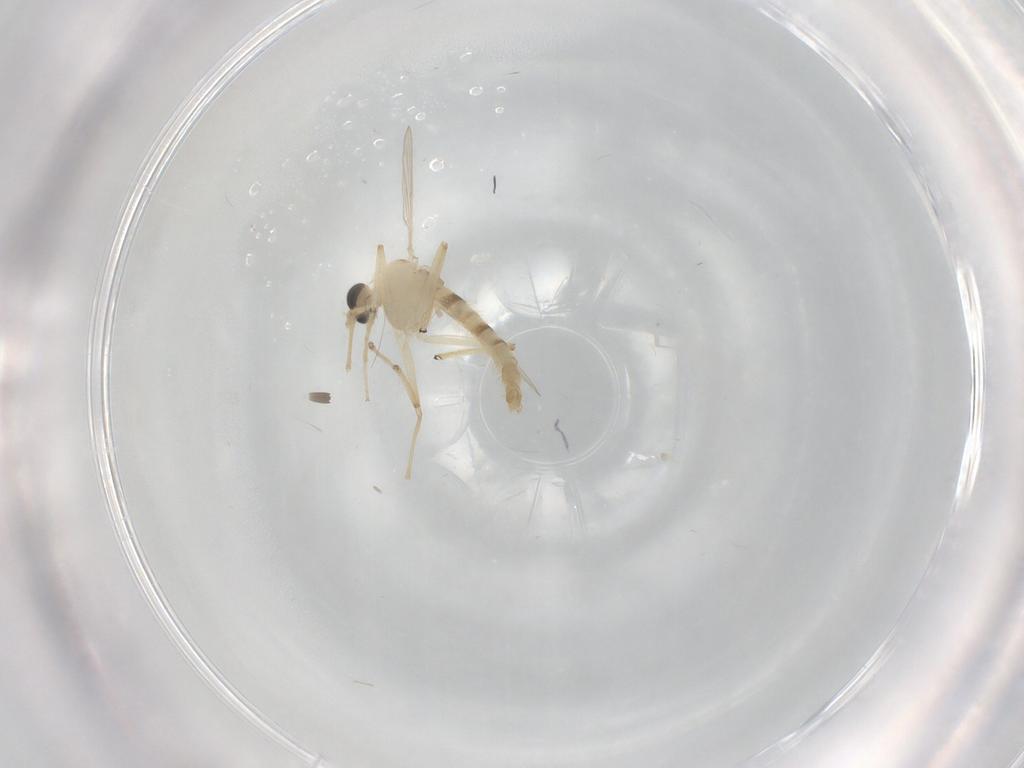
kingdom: Animalia
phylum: Arthropoda
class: Insecta
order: Diptera
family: Chironomidae
